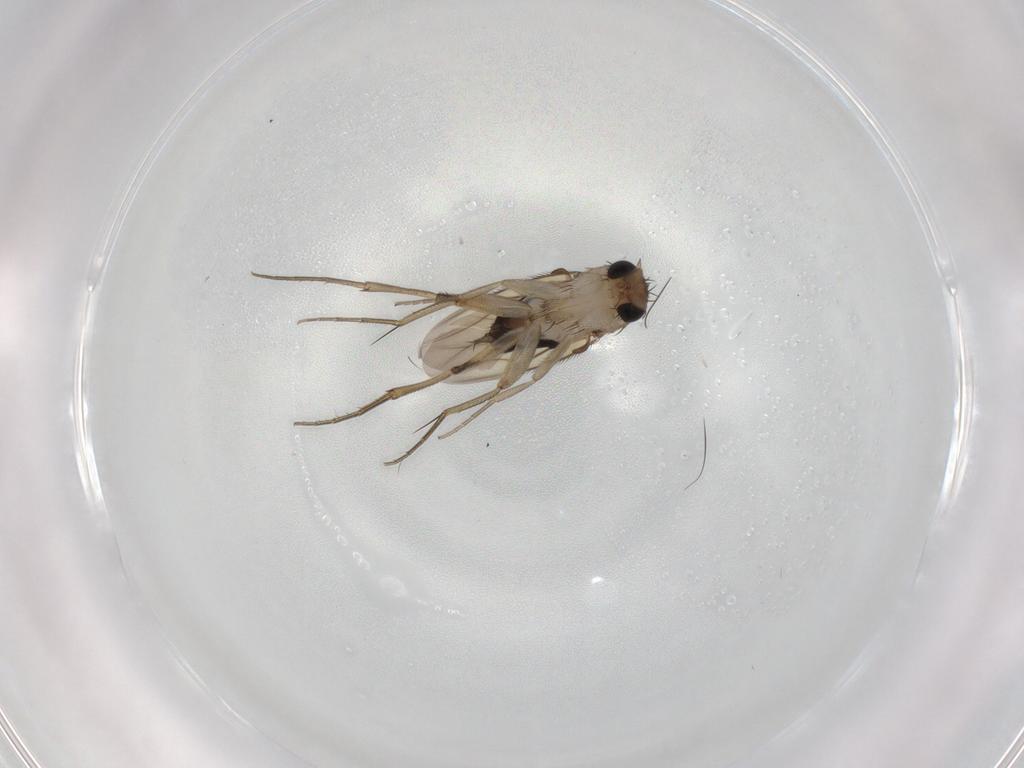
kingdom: Animalia
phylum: Arthropoda
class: Insecta
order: Diptera
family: Phoridae
